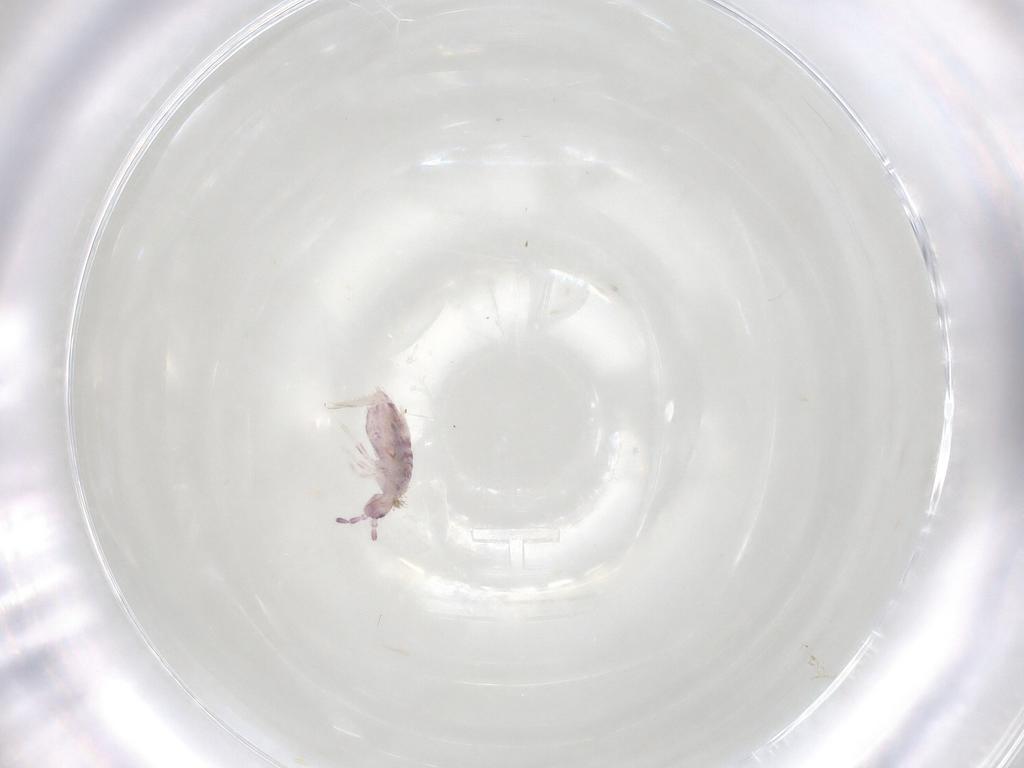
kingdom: Animalia
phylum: Arthropoda
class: Collembola
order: Poduromorpha
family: Hypogastruridae
